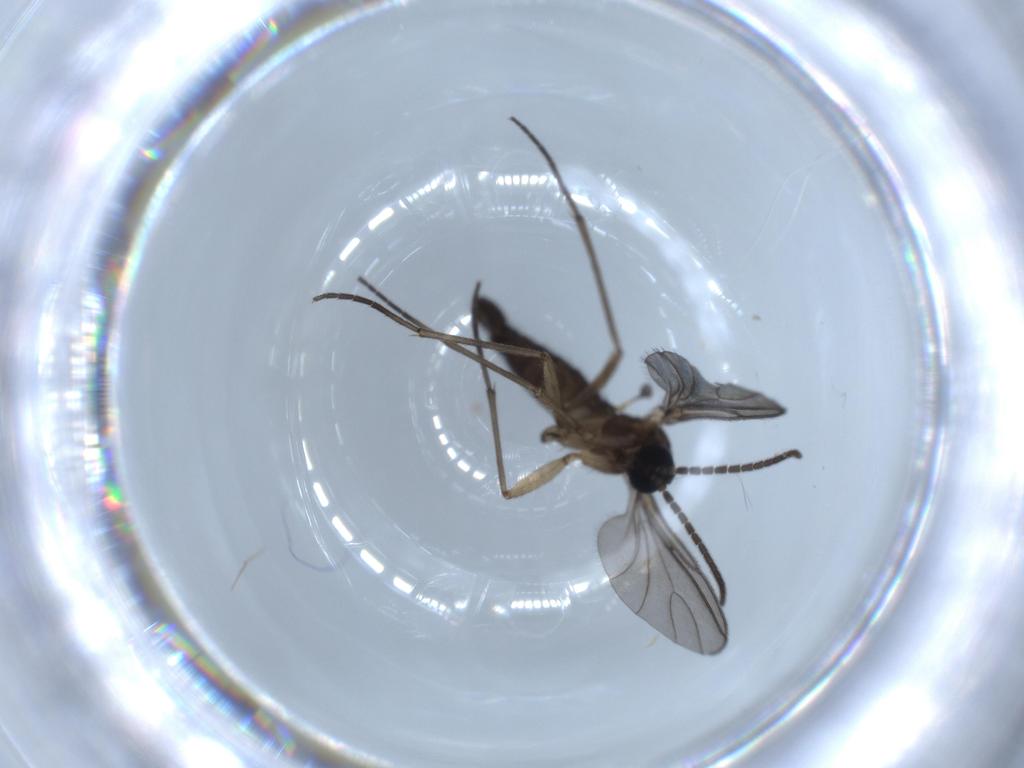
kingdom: Animalia
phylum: Arthropoda
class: Insecta
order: Diptera
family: Sciaridae
